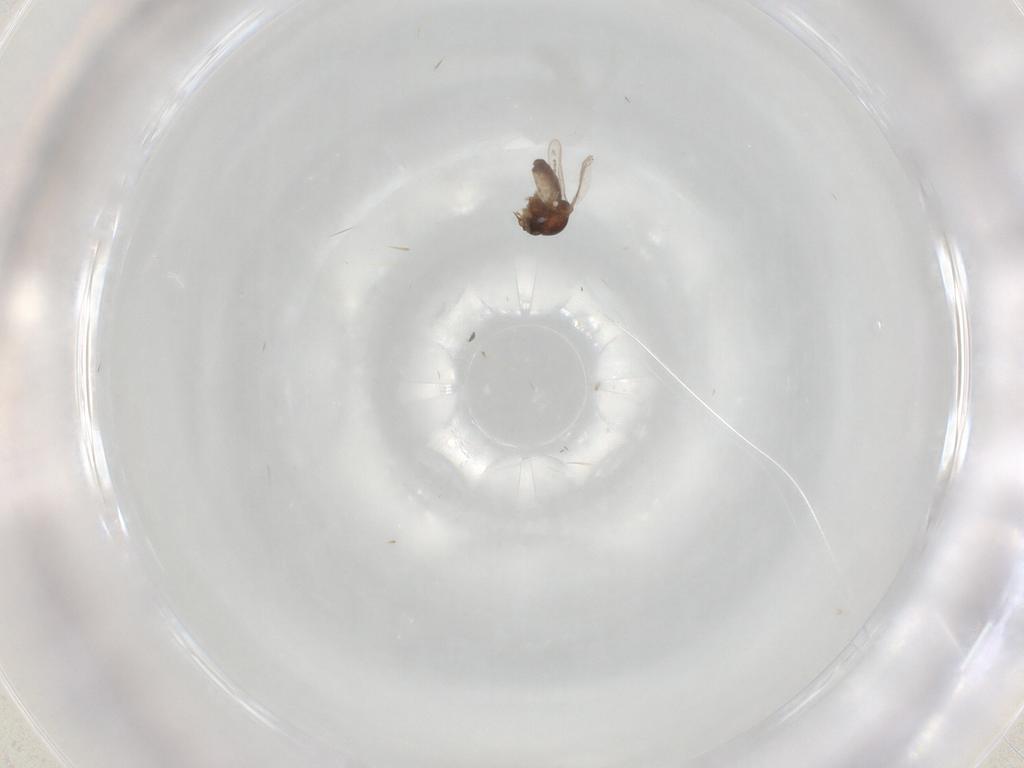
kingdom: Animalia
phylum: Arthropoda
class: Insecta
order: Diptera
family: Ceratopogonidae
